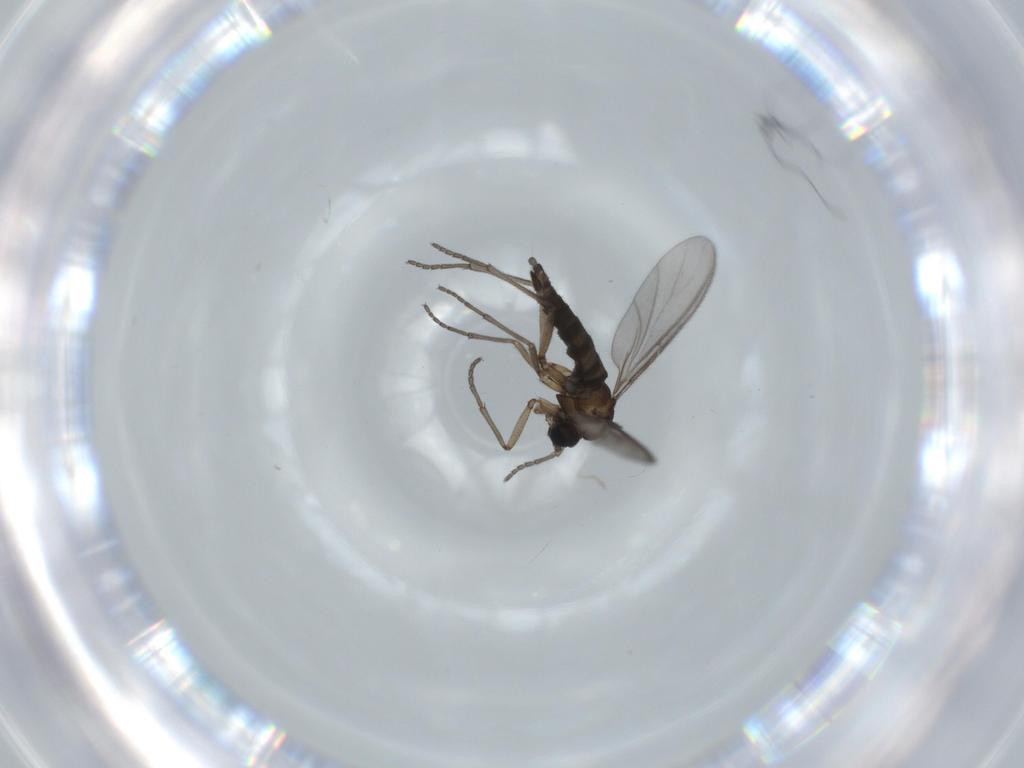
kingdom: Animalia
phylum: Arthropoda
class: Insecta
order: Diptera
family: Sciaridae
